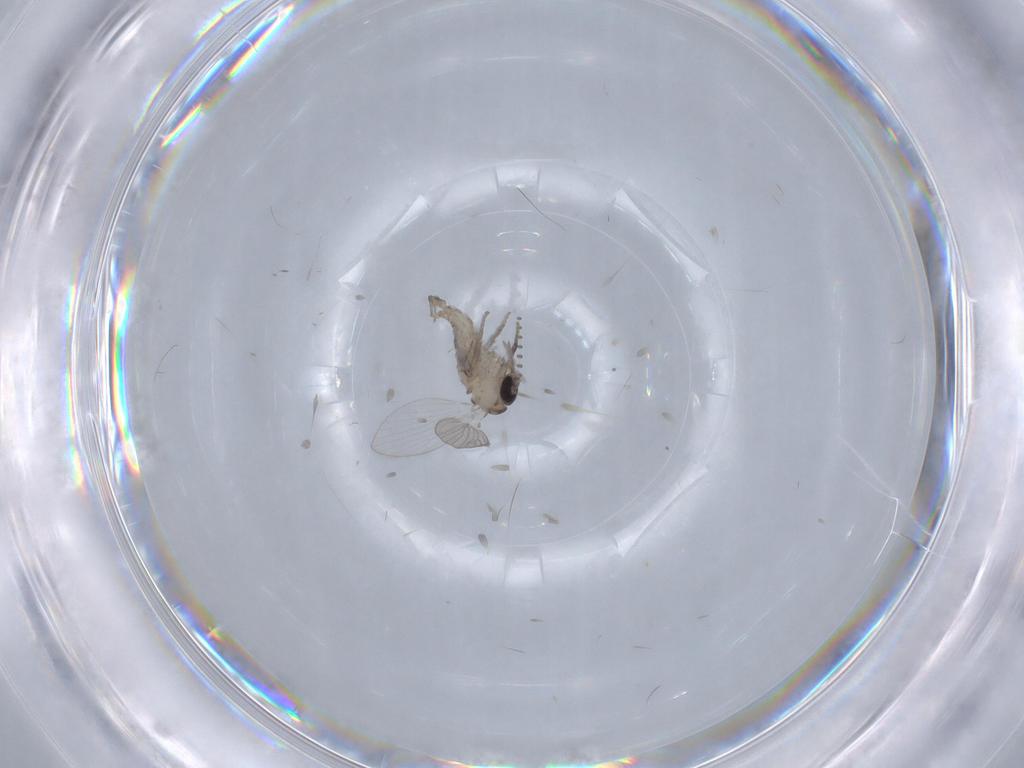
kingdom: Animalia
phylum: Arthropoda
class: Insecta
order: Diptera
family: Psychodidae
